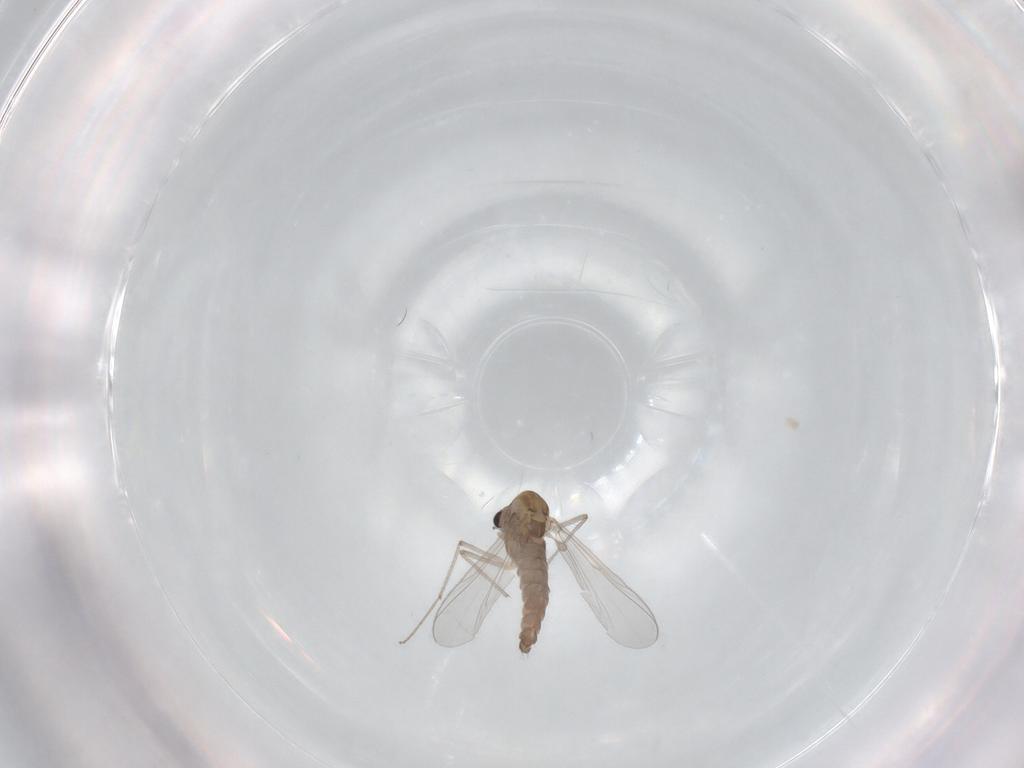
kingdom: Animalia
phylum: Arthropoda
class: Insecta
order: Diptera
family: Chironomidae
